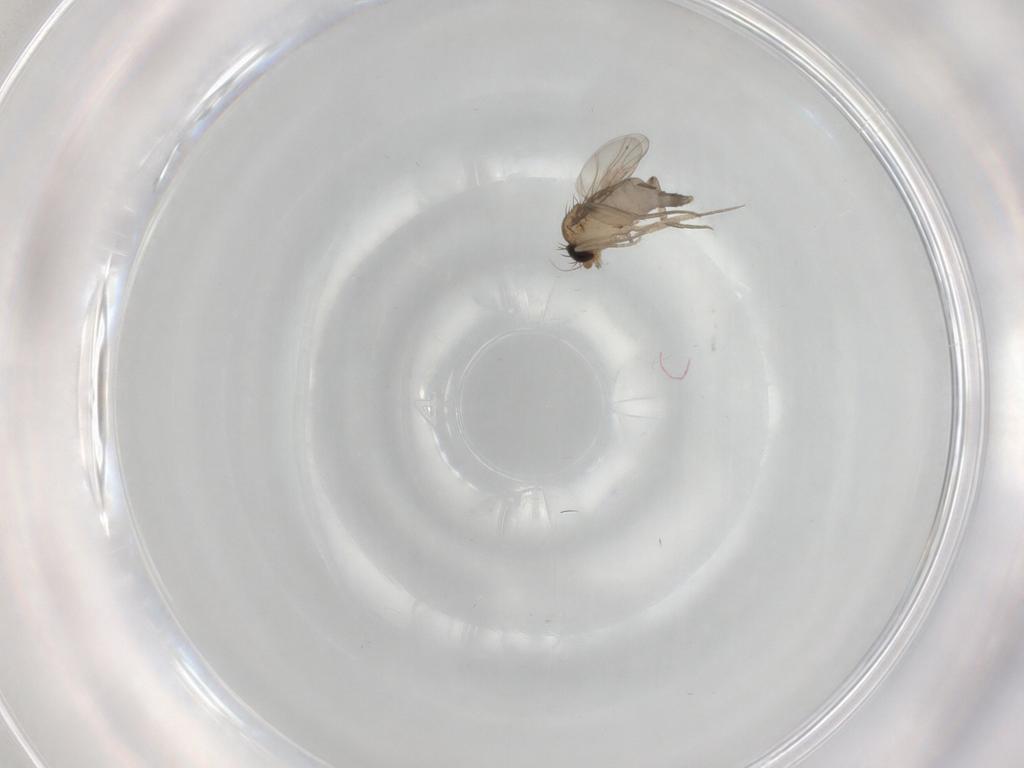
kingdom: Animalia
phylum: Arthropoda
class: Insecta
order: Diptera
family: Phoridae
